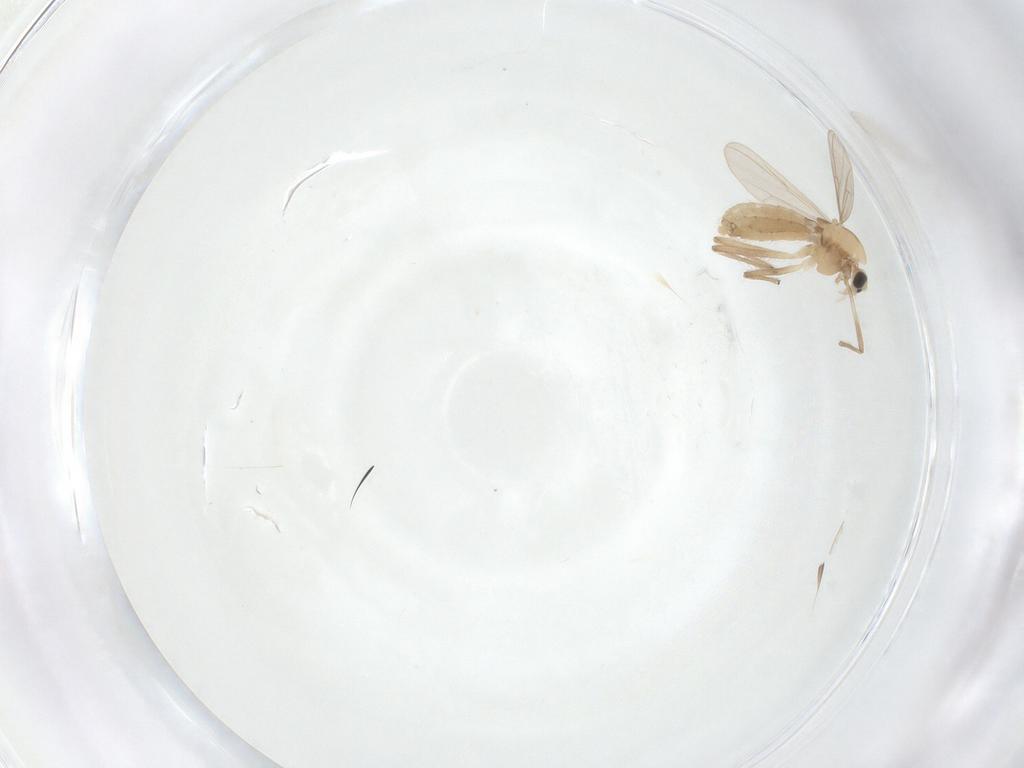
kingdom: Animalia
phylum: Arthropoda
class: Insecta
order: Diptera
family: Chironomidae
